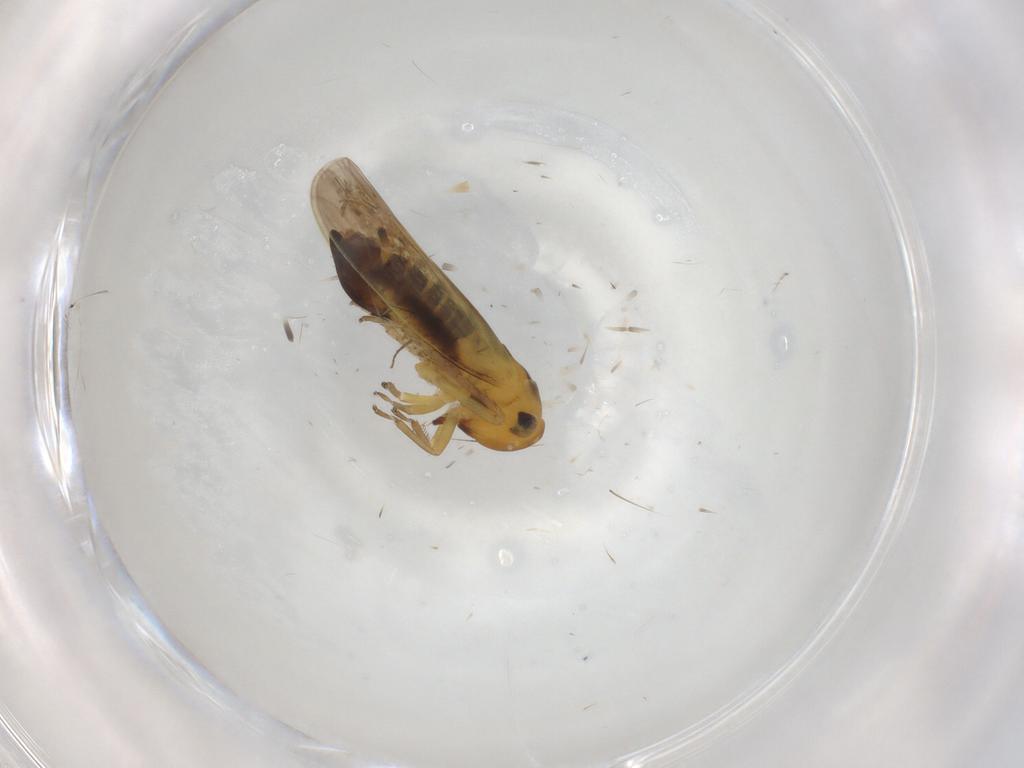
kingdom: Animalia
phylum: Arthropoda
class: Insecta
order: Hemiptera
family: Cicadellidae
